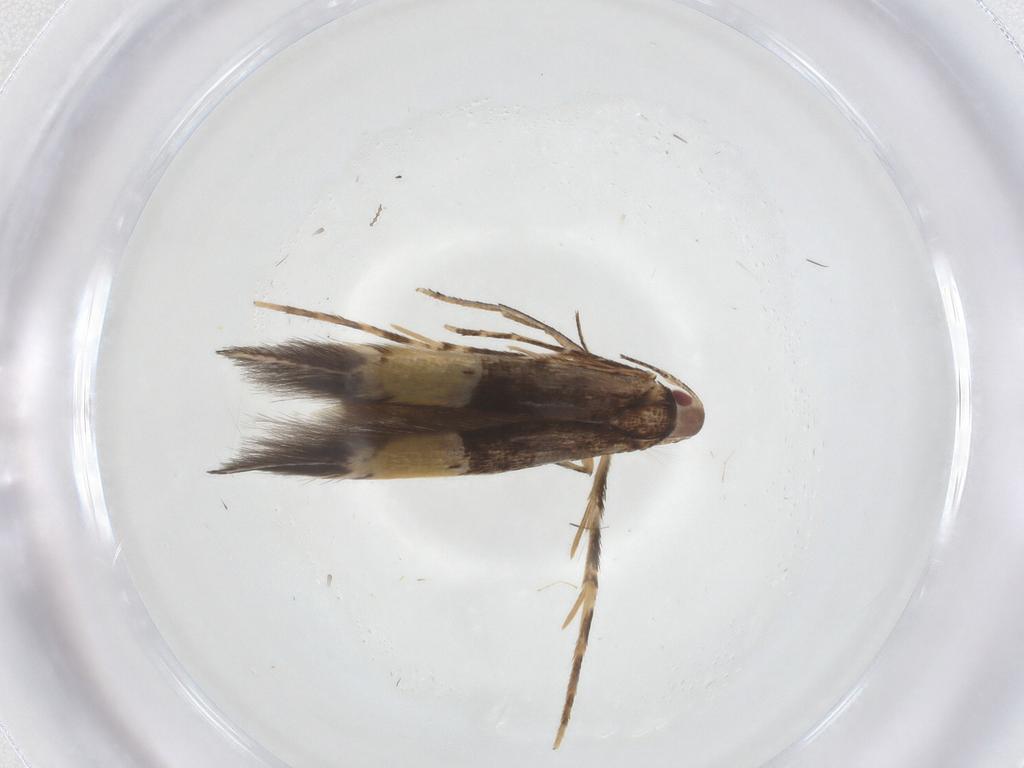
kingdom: Animalia
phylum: Arthropoda
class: Insecta
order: Lepidoptera
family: Cosmopterigidae
